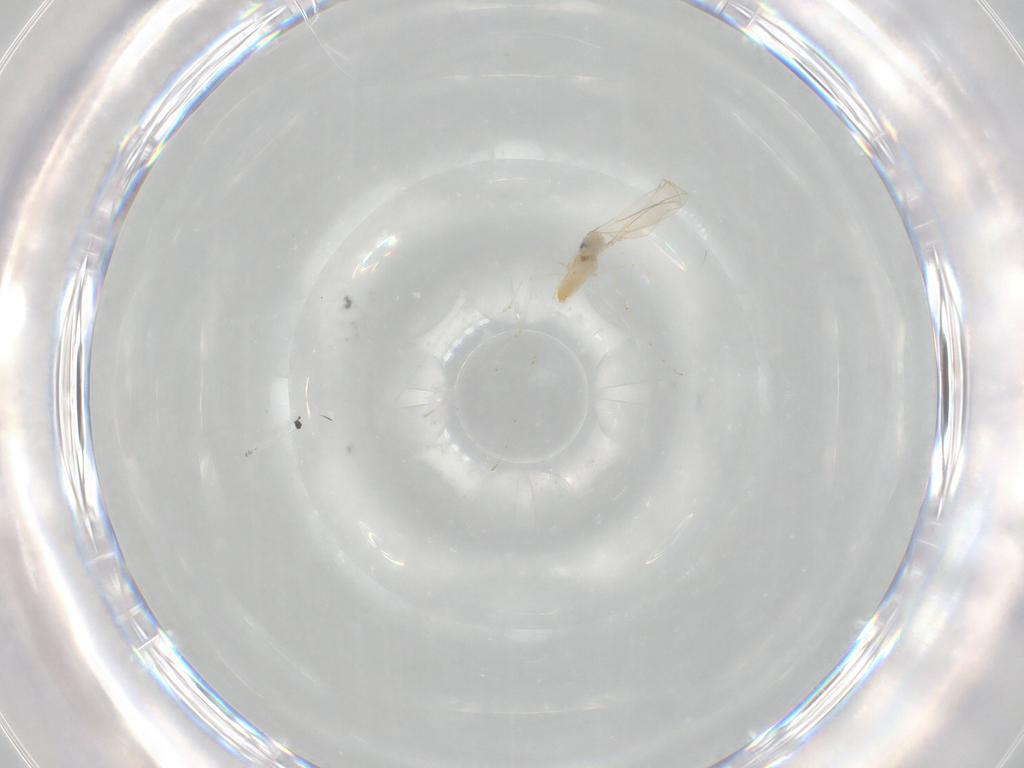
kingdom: Animalia
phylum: Arthropoda
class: Insecta
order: Diptera
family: Cecidomyiidae
